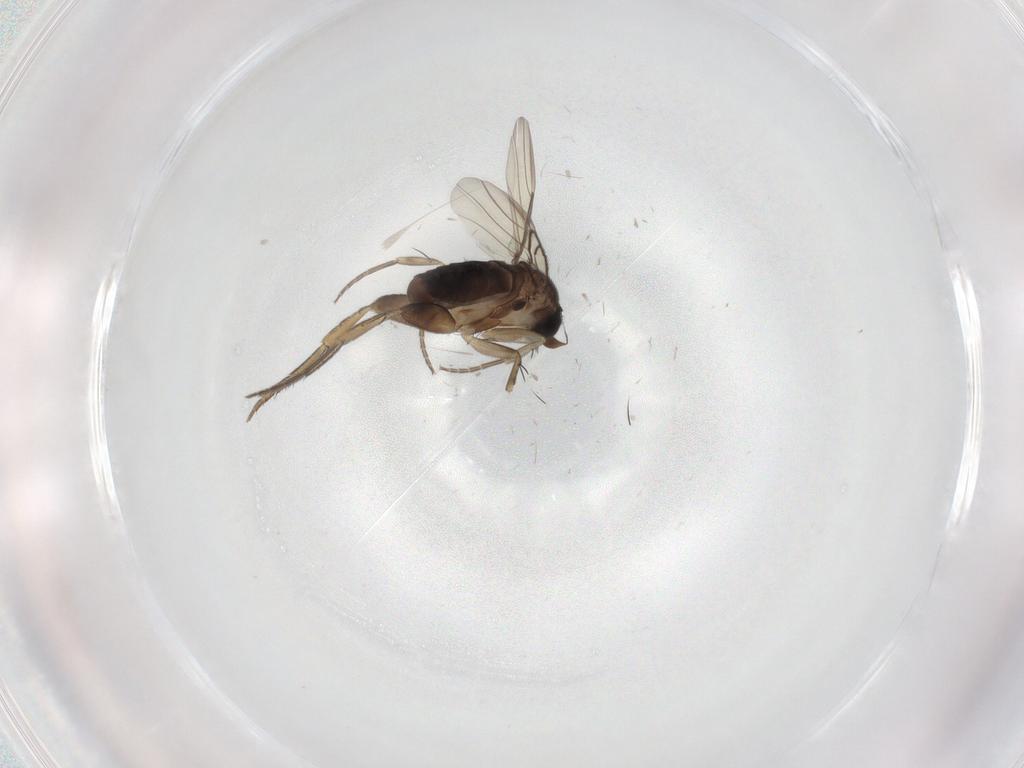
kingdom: Animalia
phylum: Arthropoda
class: Insecta
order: Diptera
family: Phoridae
